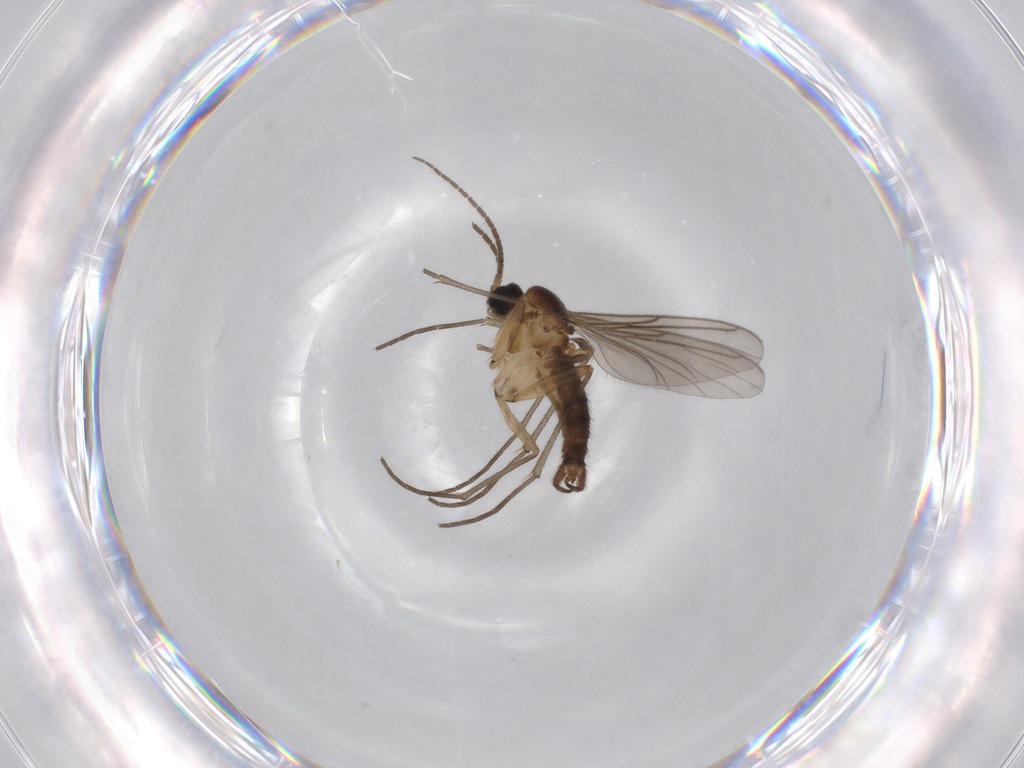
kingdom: Animalia
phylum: Arthropoda
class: Insecta
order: Diptera
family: Sciaridae
